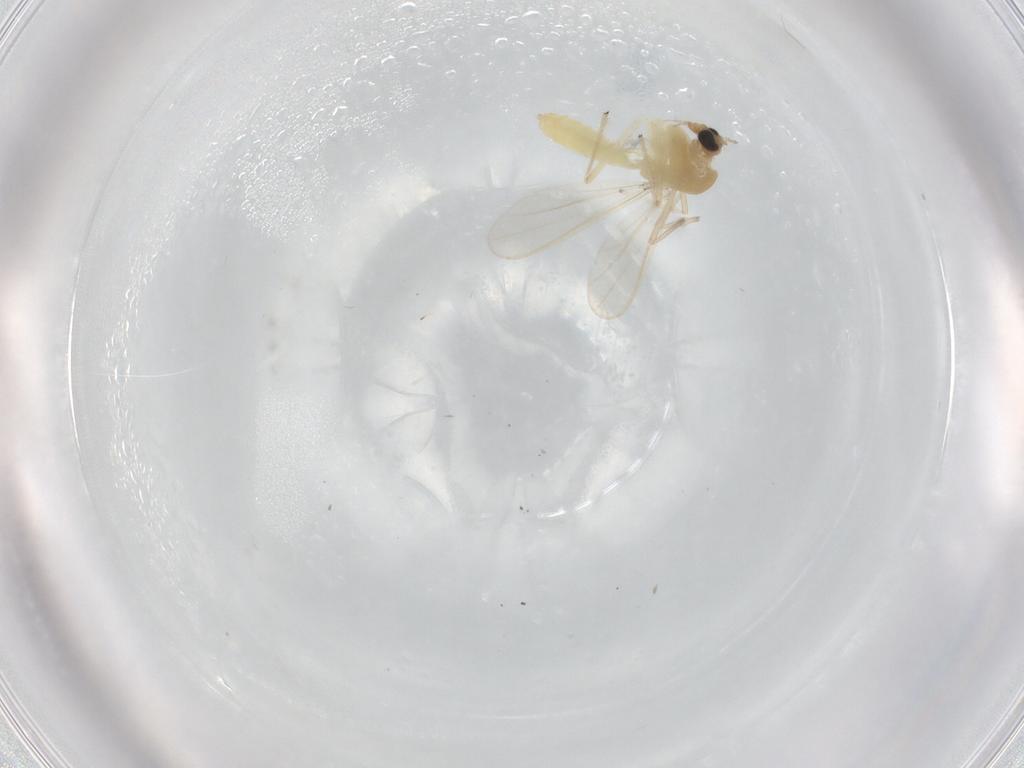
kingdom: Animalia
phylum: Arthropoda
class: Insecta
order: Diptera
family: Chironomidae
